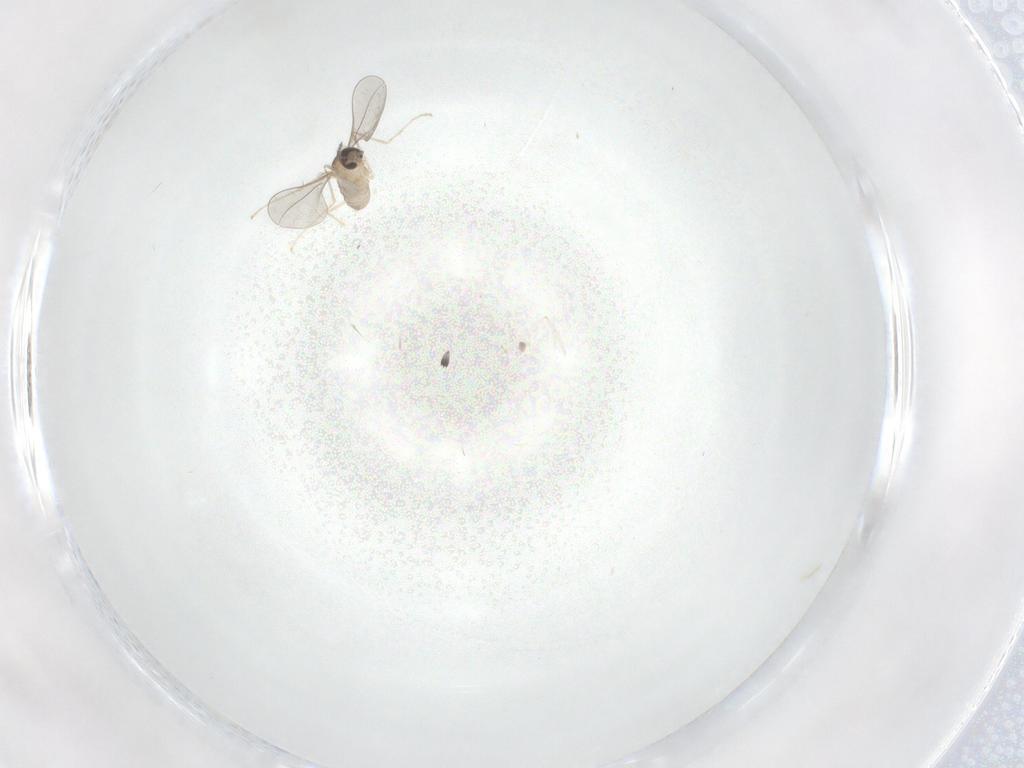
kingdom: Animalia
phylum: Arthropoda
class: Insecta
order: Diptera
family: Cecidomyiidae
